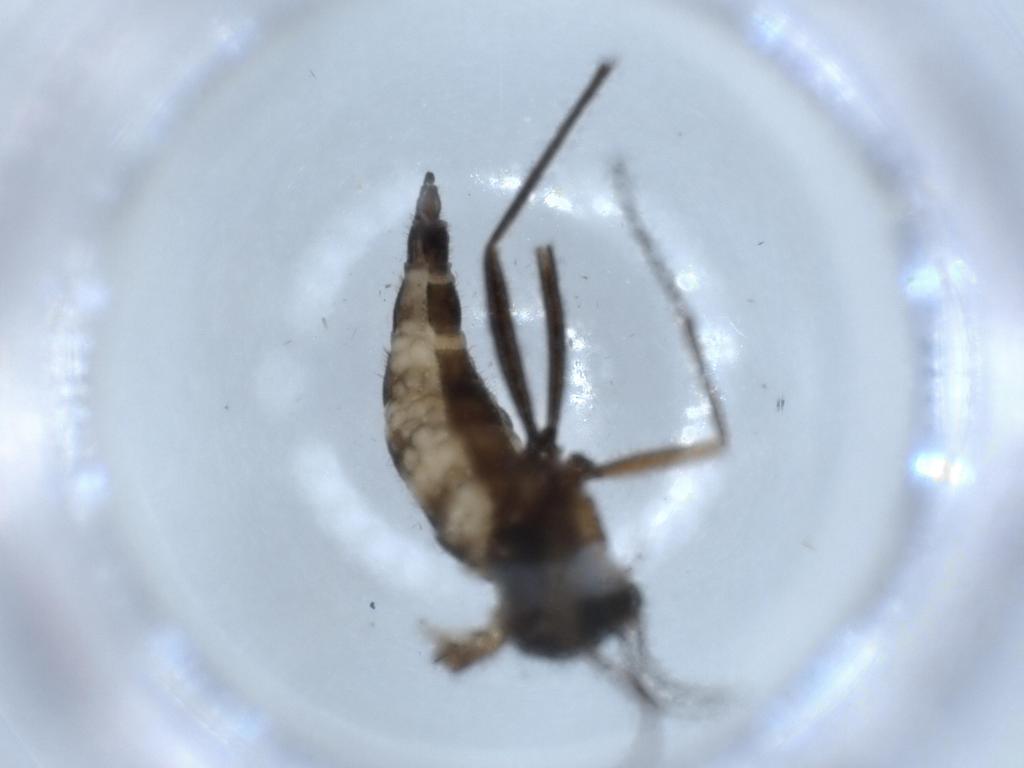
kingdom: Animalia
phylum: Arthropoda
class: Insecta
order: Diptera
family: Sciaridae
